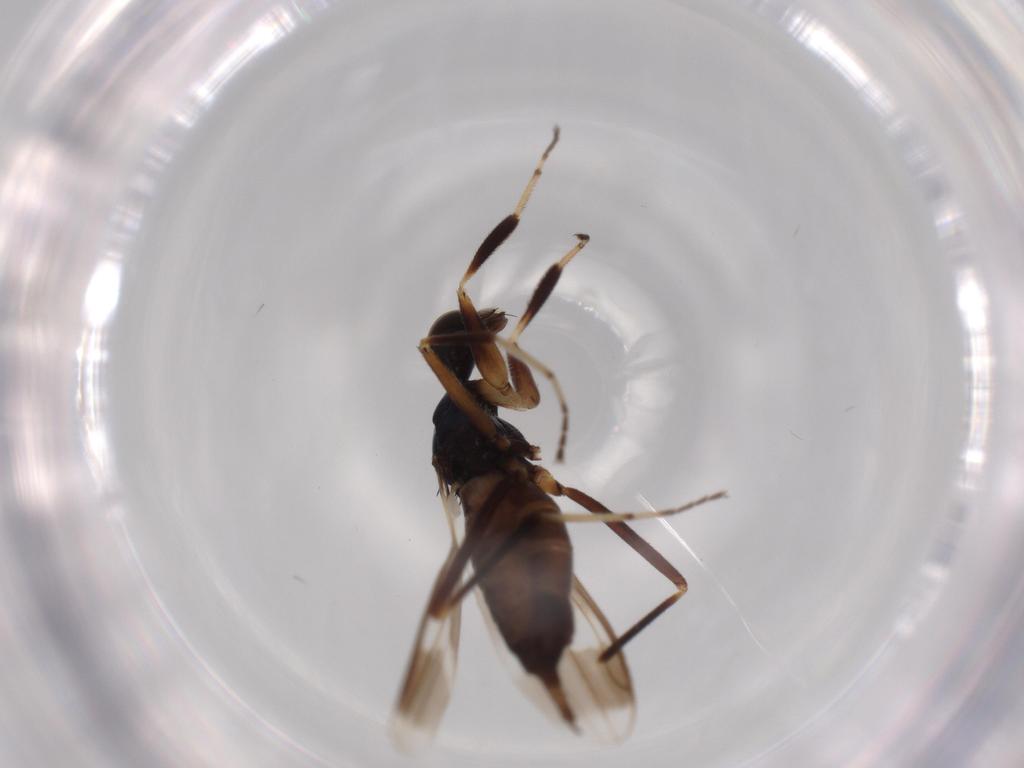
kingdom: Animalia
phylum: Arthropoda
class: Insecta
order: Diptera
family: Hybotidae
